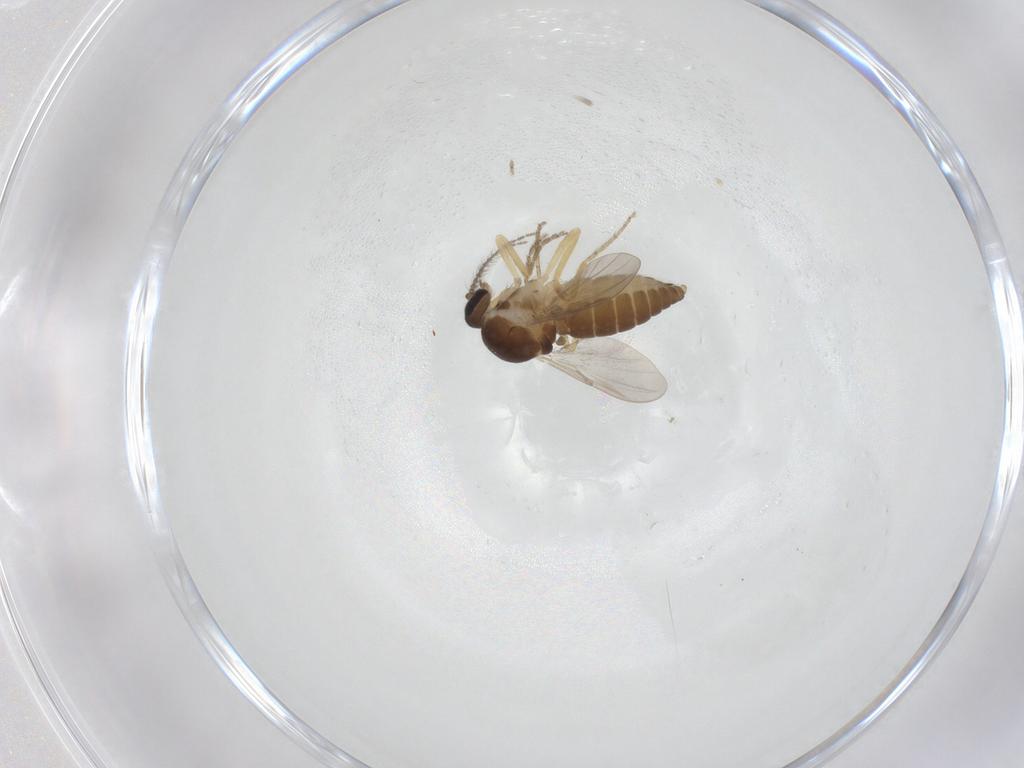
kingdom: Animalia
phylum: Arthropoda
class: Insecta
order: Diptera
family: Ceratopogonidae
